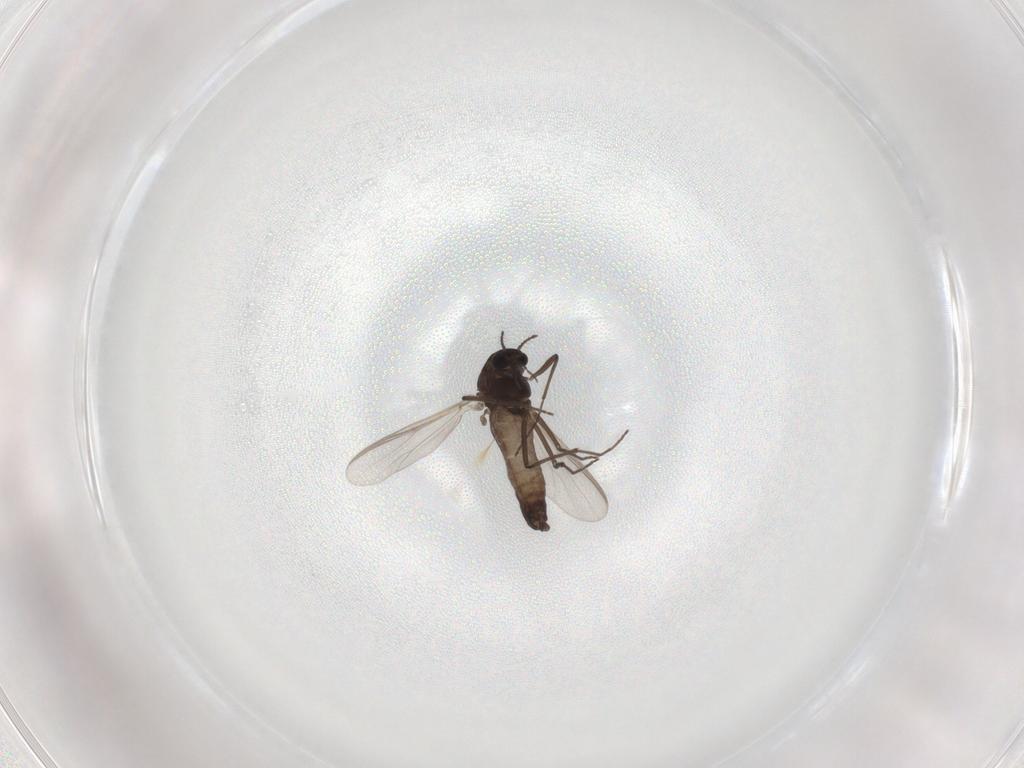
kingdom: Animalia
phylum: Arthropoda
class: Insecta
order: Diptera
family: Chironomidae
